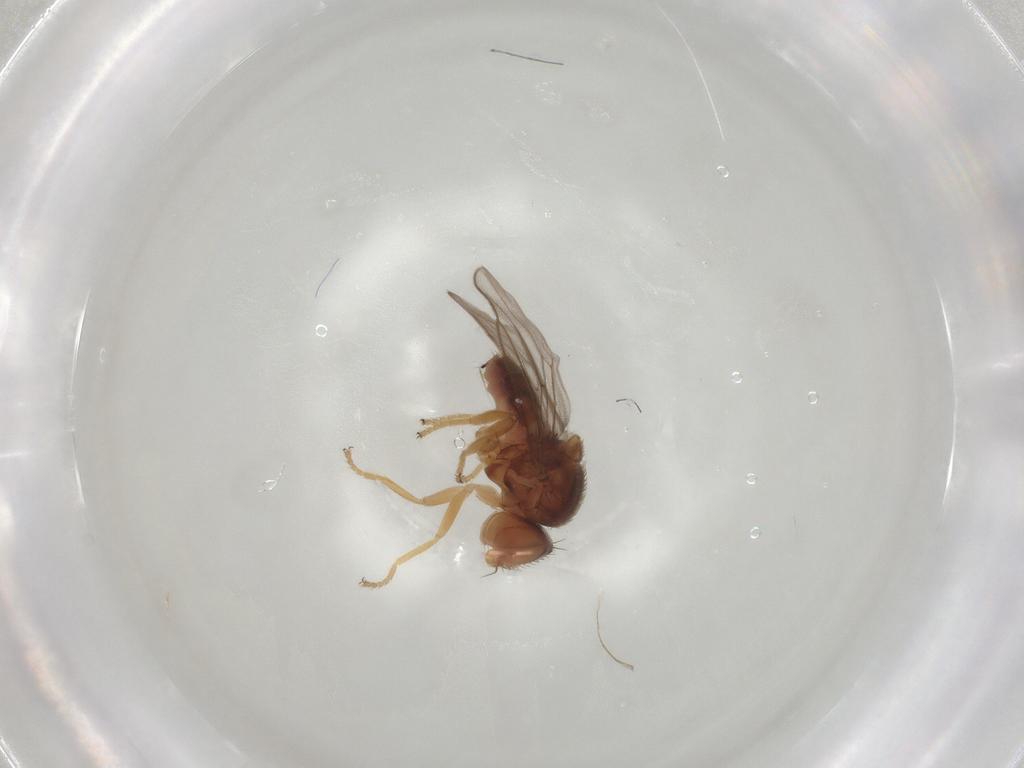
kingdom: Animalia
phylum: Arthropoda
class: Insecta
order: Diptera
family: Chloropidae
